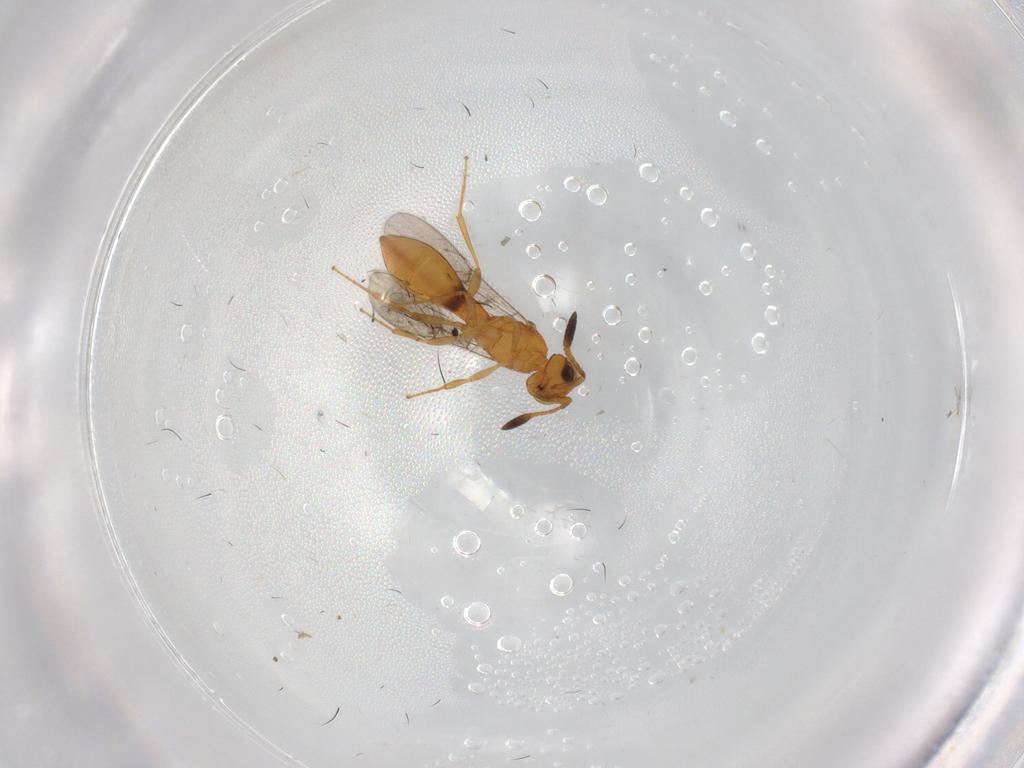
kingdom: Animalia
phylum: Arthropoda
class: Insecta
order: Hymenoptera
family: Scelionidae
